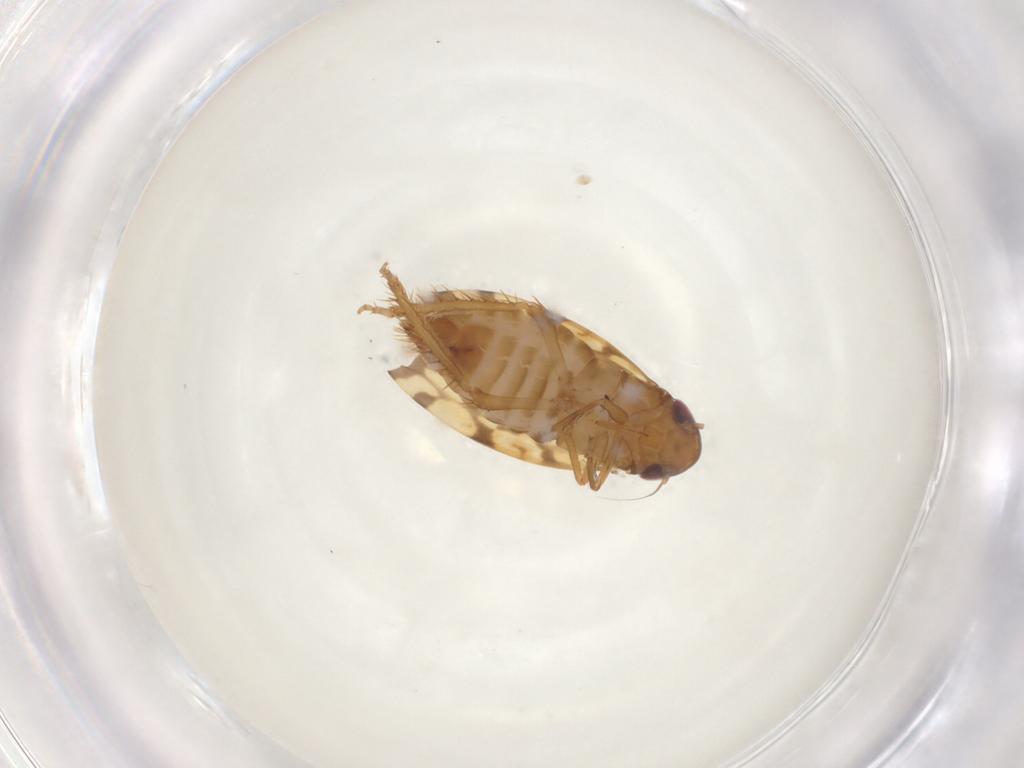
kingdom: Animalia
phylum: Arthropoda
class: Insecta
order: Hemiptera
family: Cicadellidae
